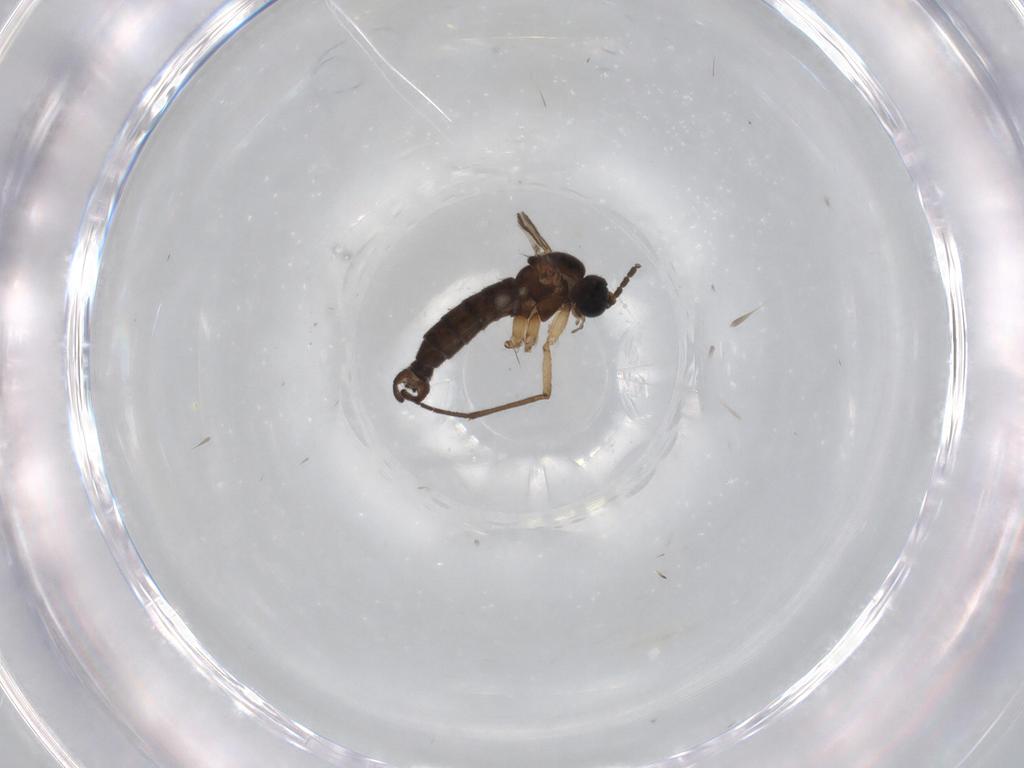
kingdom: Animalia
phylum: Arthropoda
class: Insecta
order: Diptera
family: Sciaridae
